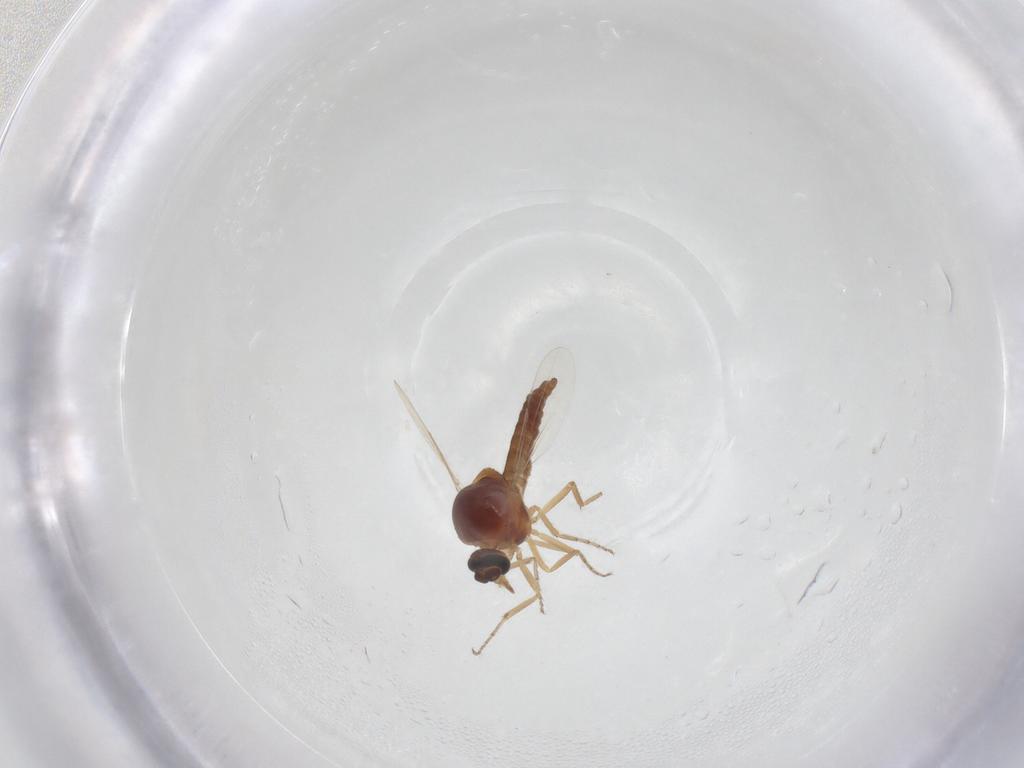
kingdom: Animalia
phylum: Arthropoda
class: Insecta
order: Diptera
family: Ceratopogonidae
